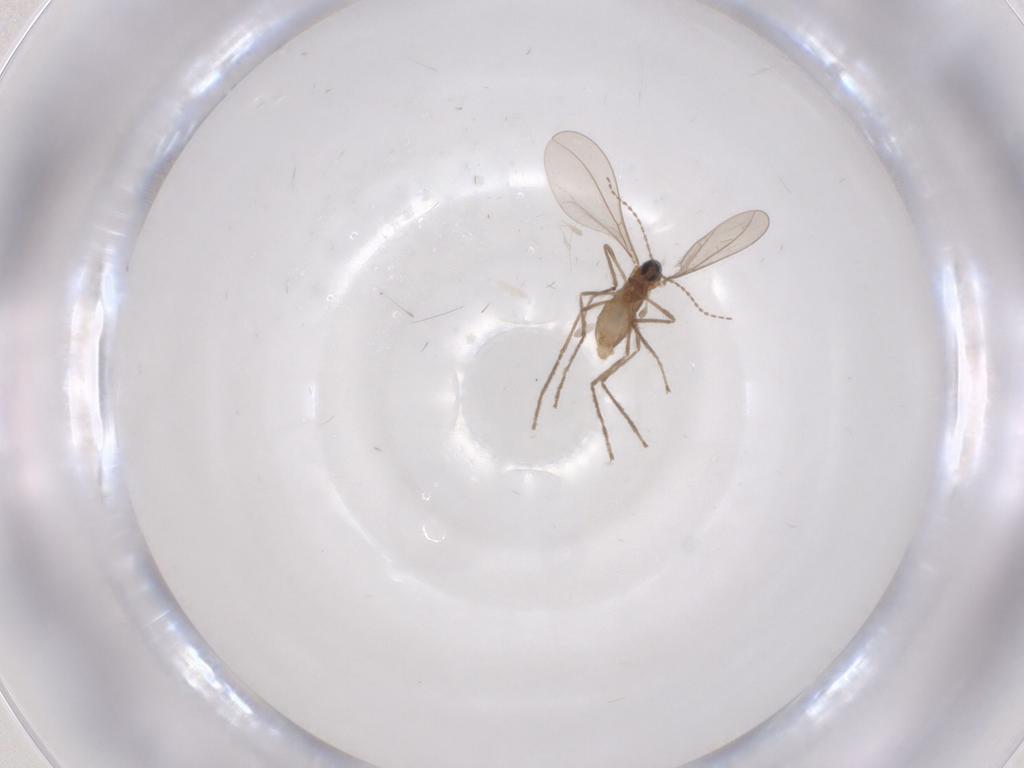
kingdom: Animalia
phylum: Arthropoda
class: Insecta
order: Diptera
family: Cecidomyiidae
